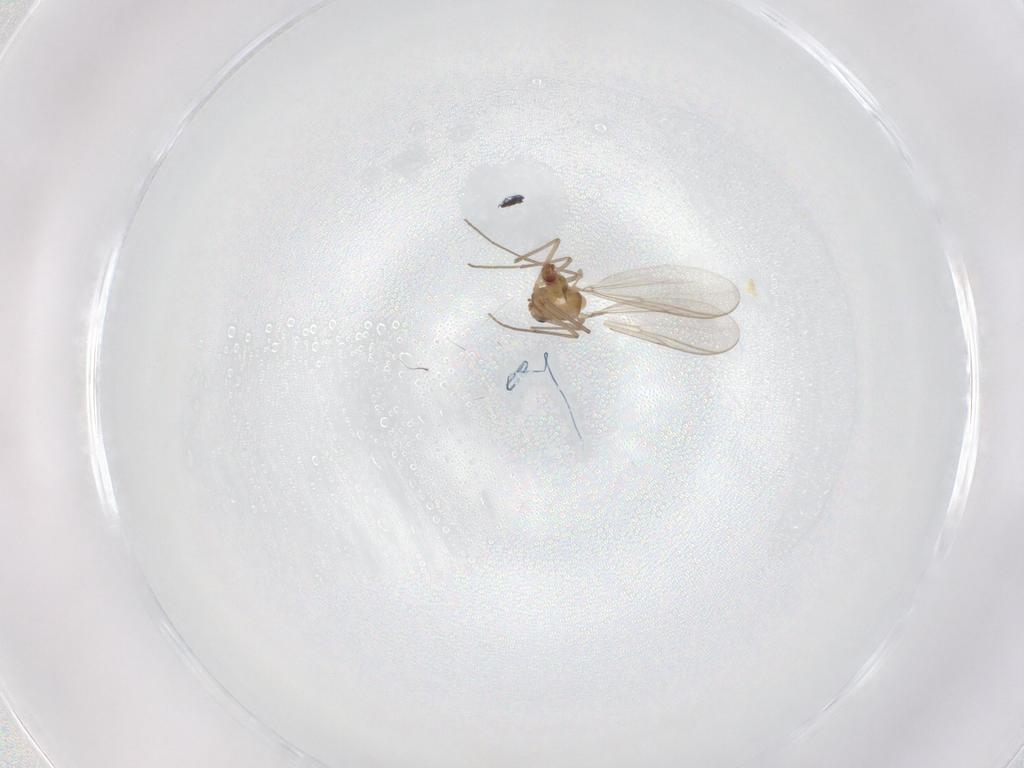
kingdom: Animalia
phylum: Arthropoda
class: Insecta
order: Diptera
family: Chironomidae
